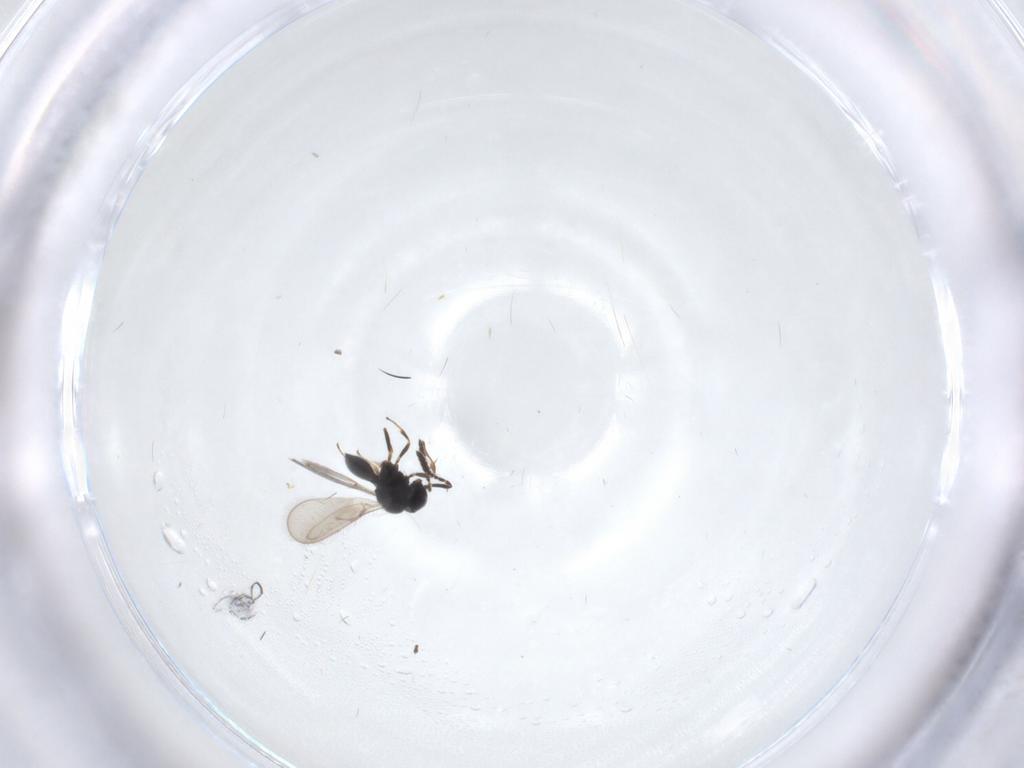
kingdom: Animalia
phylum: Arthropoda
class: Insecta
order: Hymenoptera
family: Scelionidae
